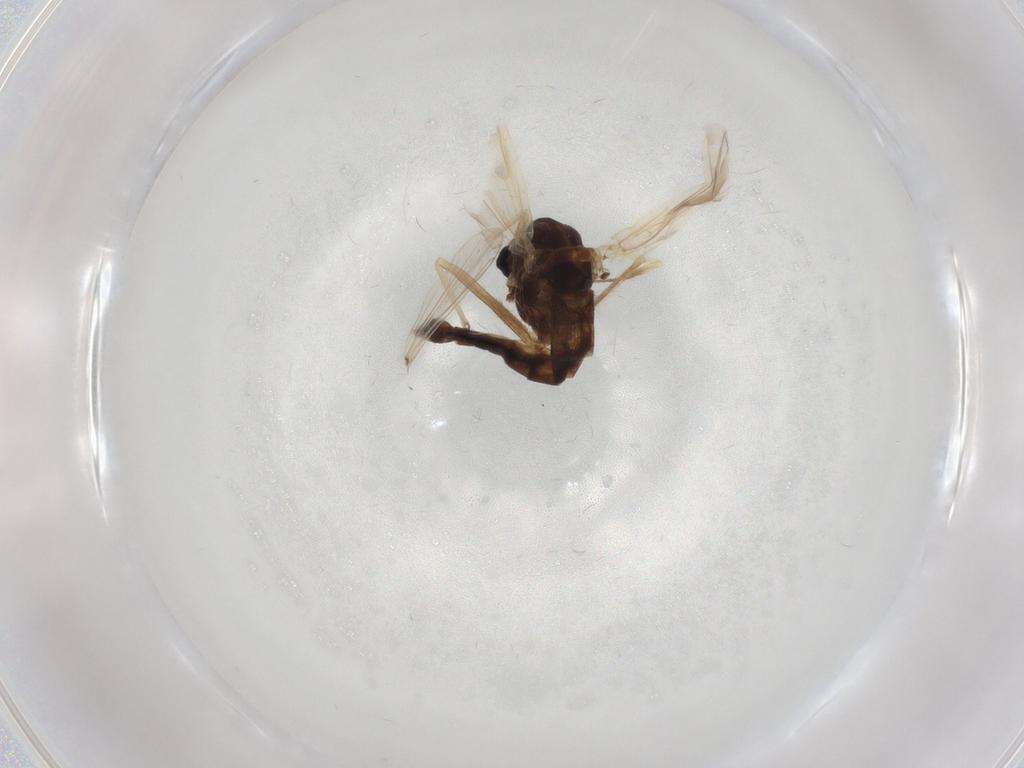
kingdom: Animalia
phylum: Arthropoda
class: Insecta
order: Diptera
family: Chironomidae
